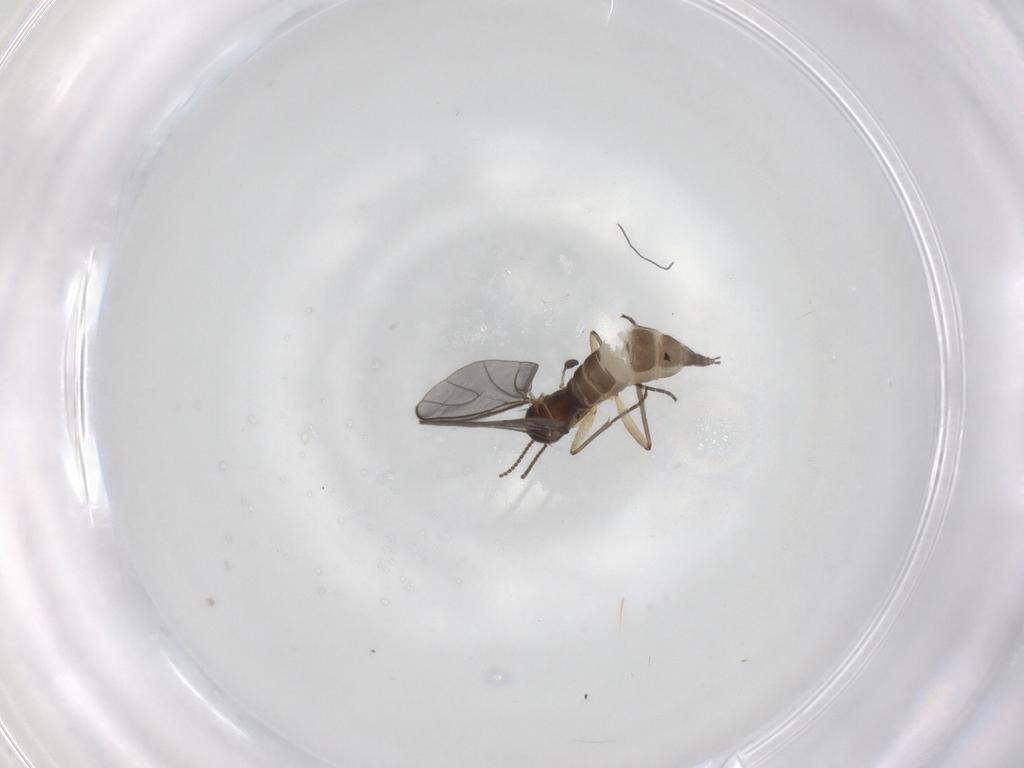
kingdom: Animalia
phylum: Arthropoda
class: Insecta
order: Diptera
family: Sciaridae
